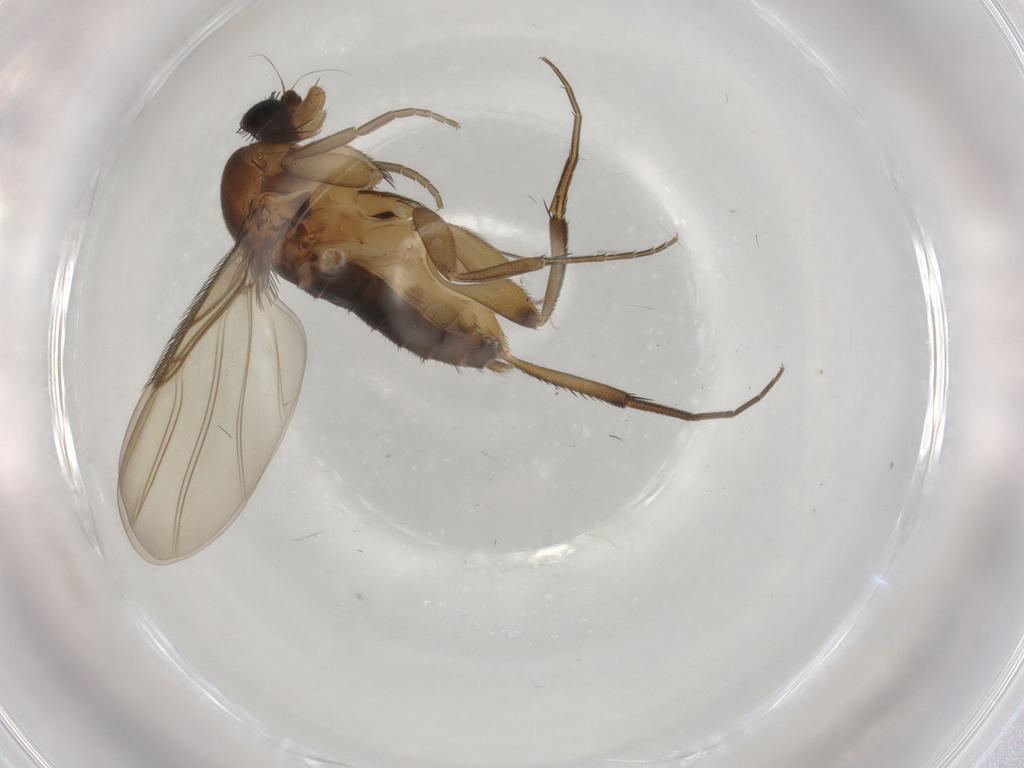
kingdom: Animalia
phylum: Arthropoda
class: Insecta
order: Diptera
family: Phoridae
